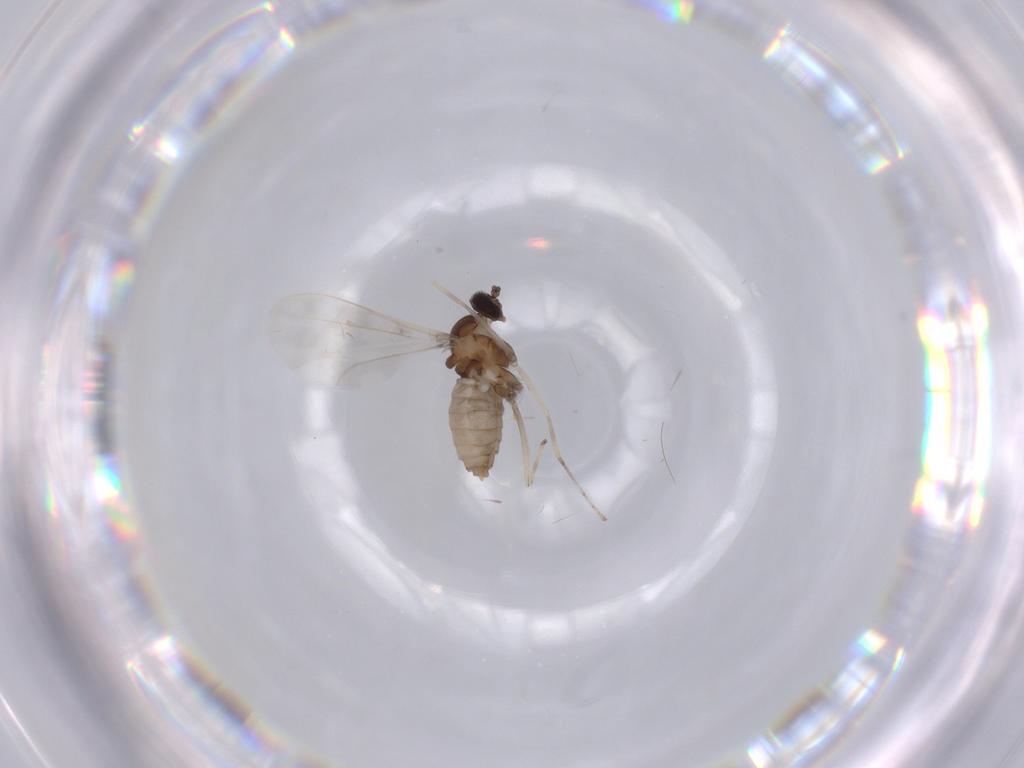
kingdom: Animalia
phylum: Arthropoda
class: Insecta
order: Diptera
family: Cecidomyiidae
